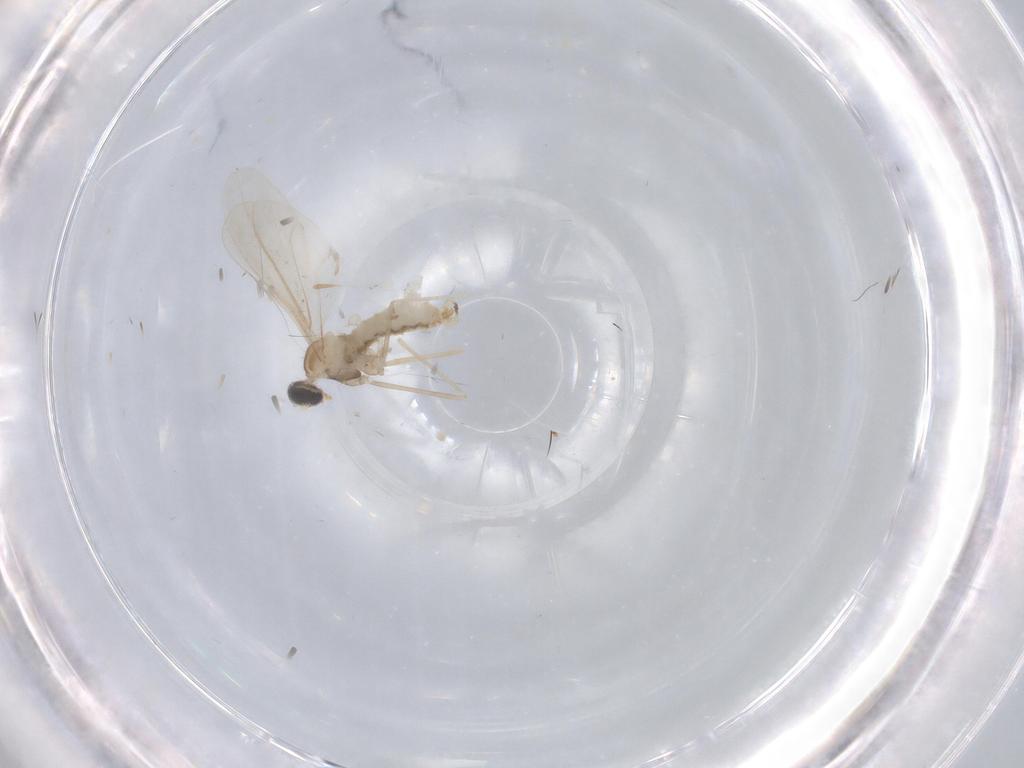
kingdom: Animalia
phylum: Arthropoda
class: Insecta
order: Diptera
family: Cecidomyiidae
